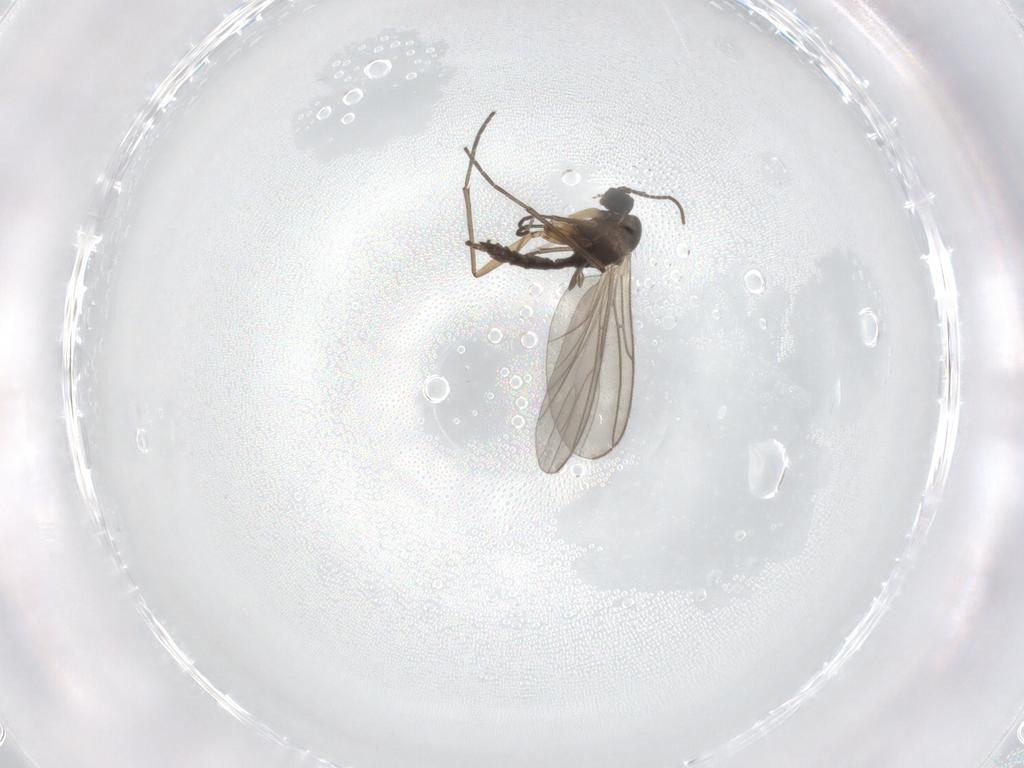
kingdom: Animalia
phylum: Arthropoda
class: Insecta
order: Diptera
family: Sciaridae
